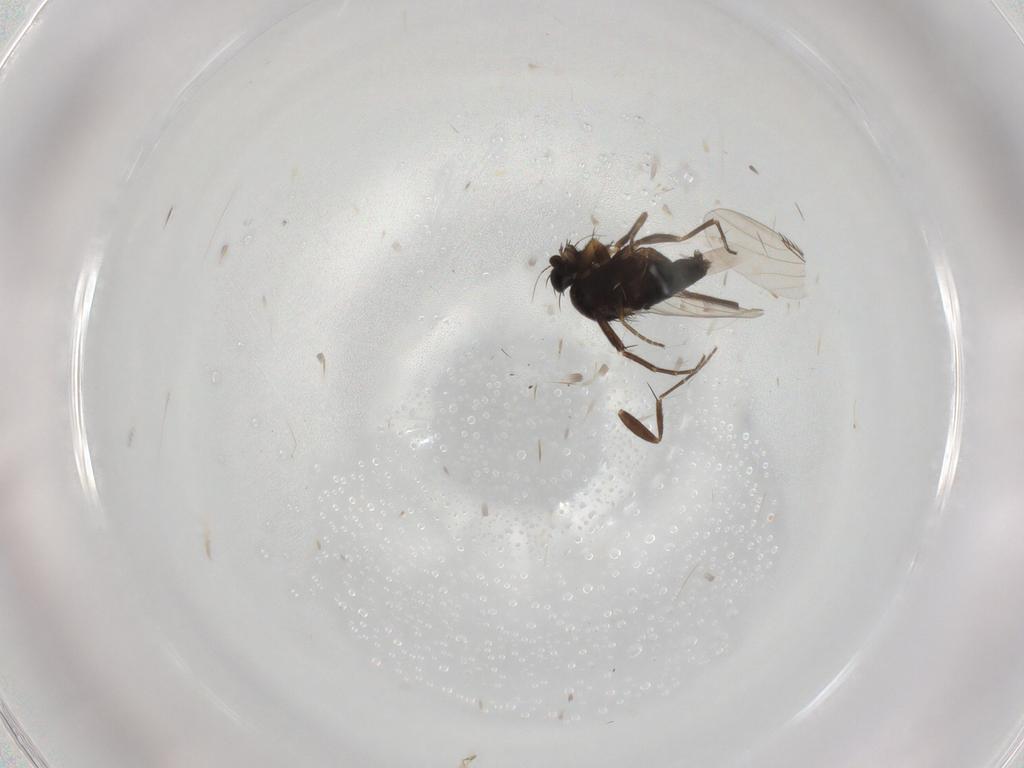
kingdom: Animalia
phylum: Arthropoda
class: Insecta
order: Diptera
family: Phoridae
